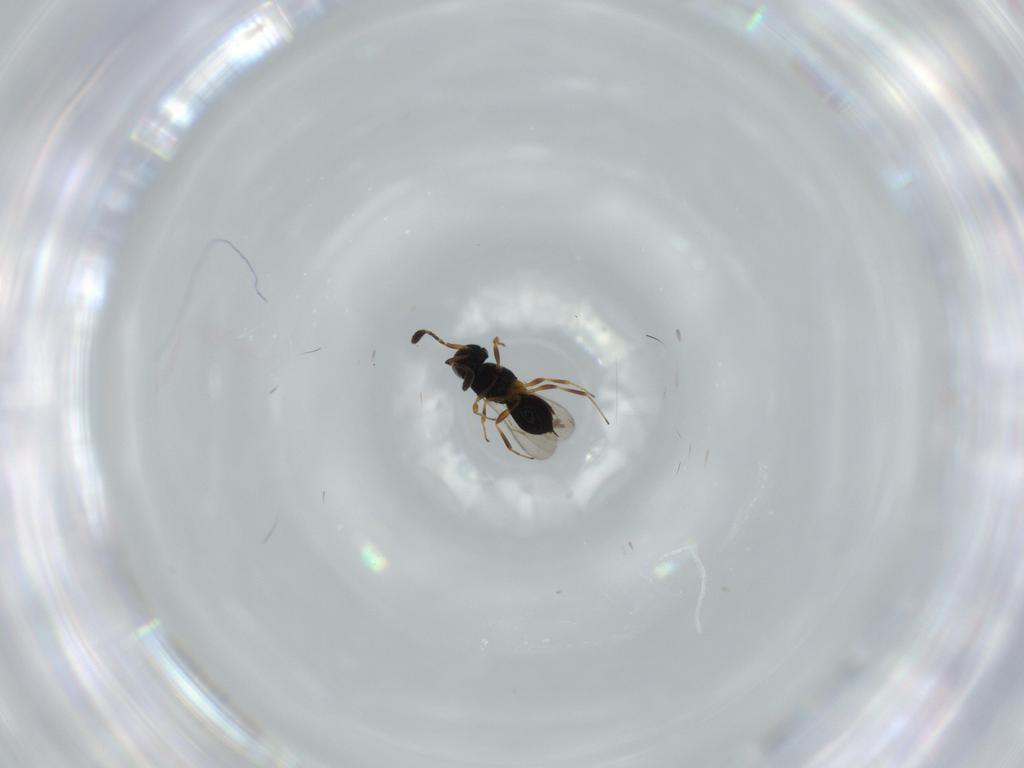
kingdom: Animalia
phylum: Arthropoda
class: Insecta
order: Hymenoptera
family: Scelionidae
